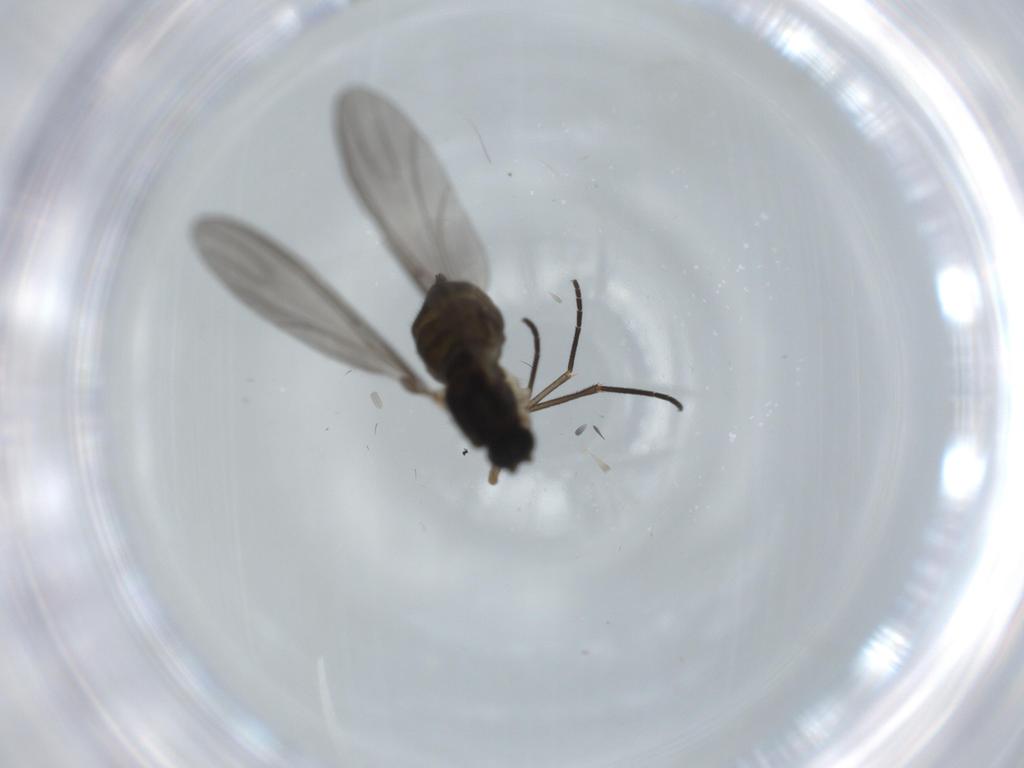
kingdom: Animalia
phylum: Arthropoda
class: Insecta
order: Diptera
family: Sciaridae
